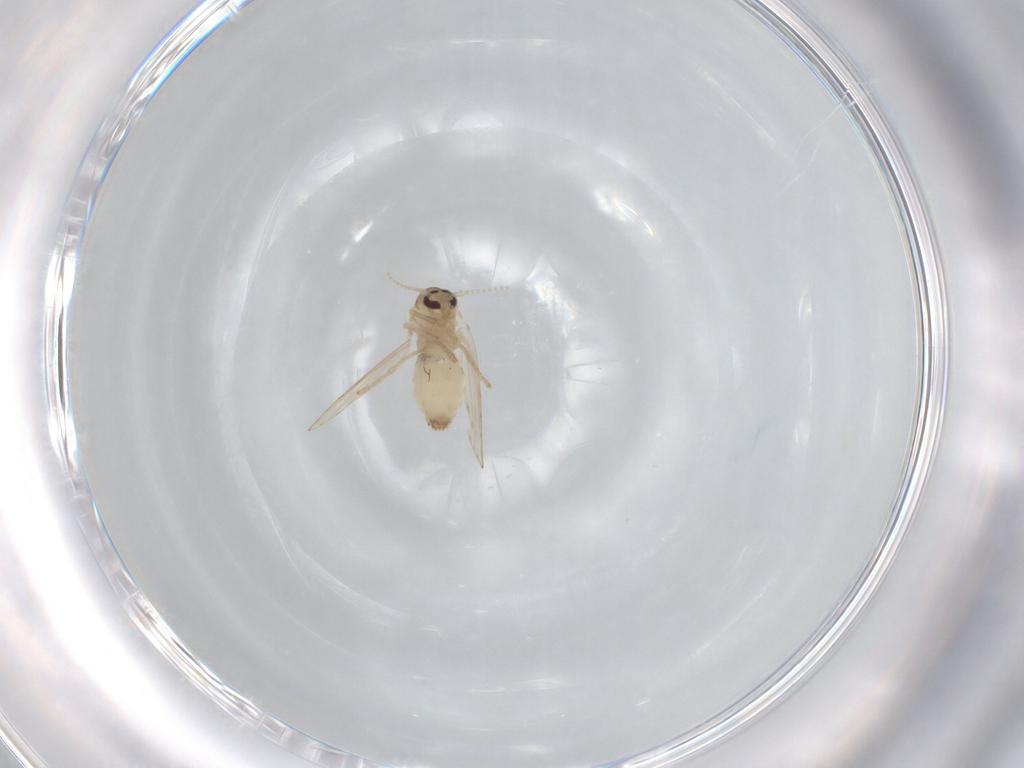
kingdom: Animalia
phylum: Arthropoda
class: Insecta
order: Diptera
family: Psychodidae
